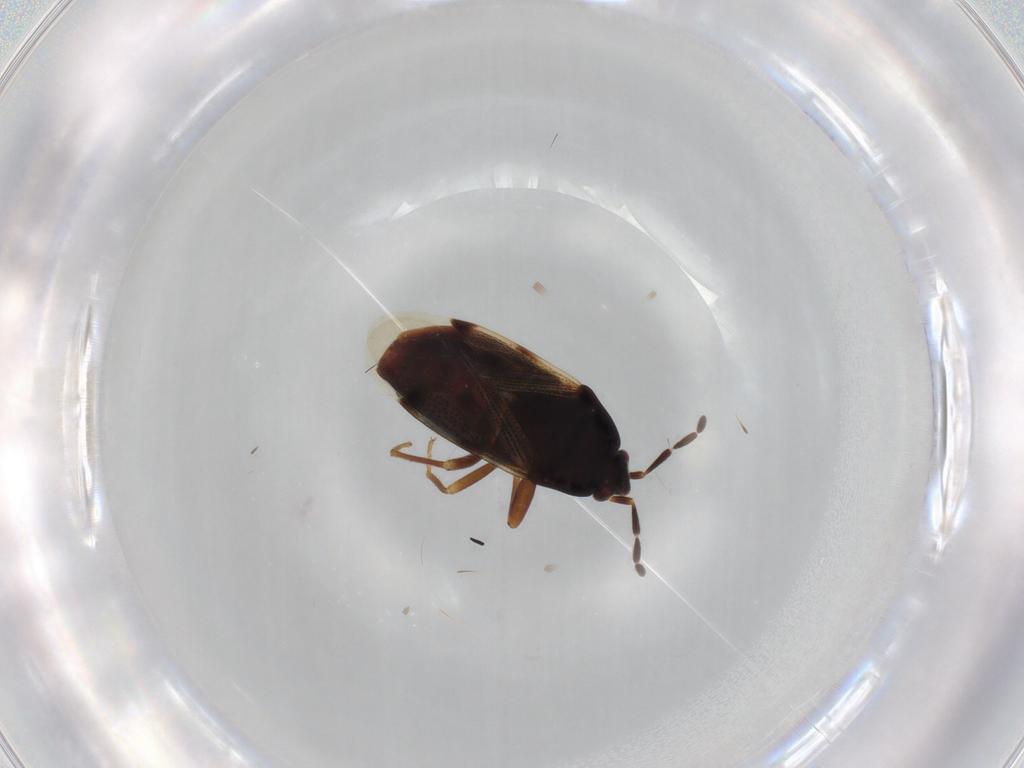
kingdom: Animalia
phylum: Arthropoda
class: Insecta
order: Hemiptera
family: Rhyparochromidae
